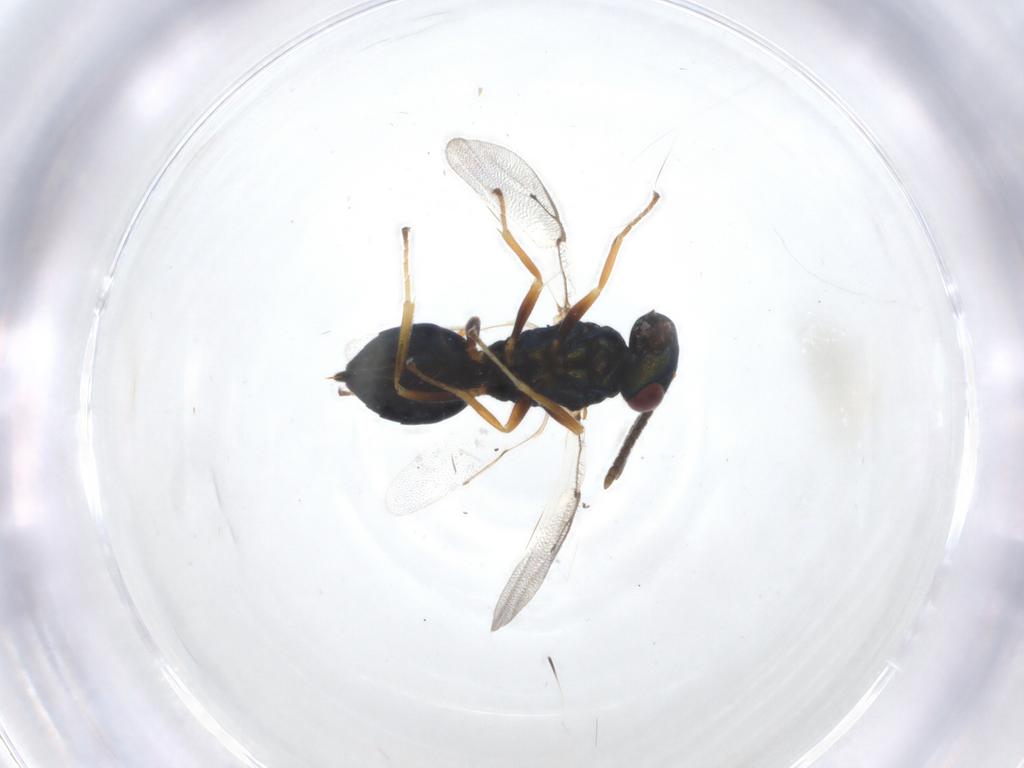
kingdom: Animalia
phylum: Arthropoda
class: Insecta
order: Hymenoptera
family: Pteromalidae
